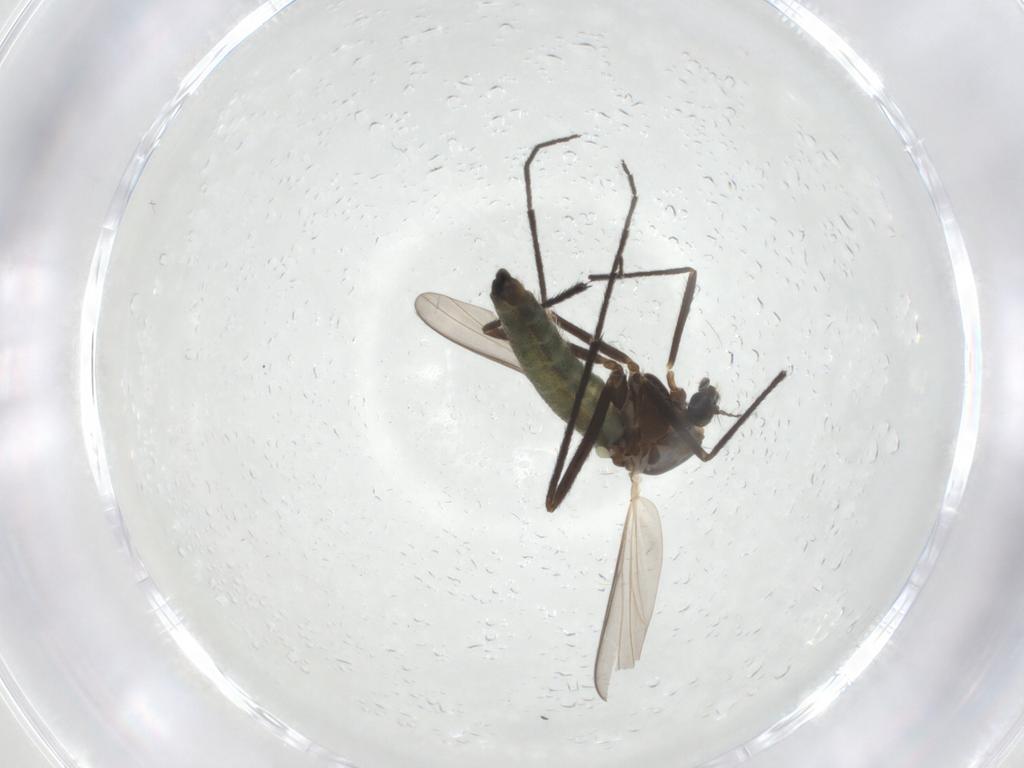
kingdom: Animalia
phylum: Arthropoda
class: Insecta
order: Diptera
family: Chironomidae
